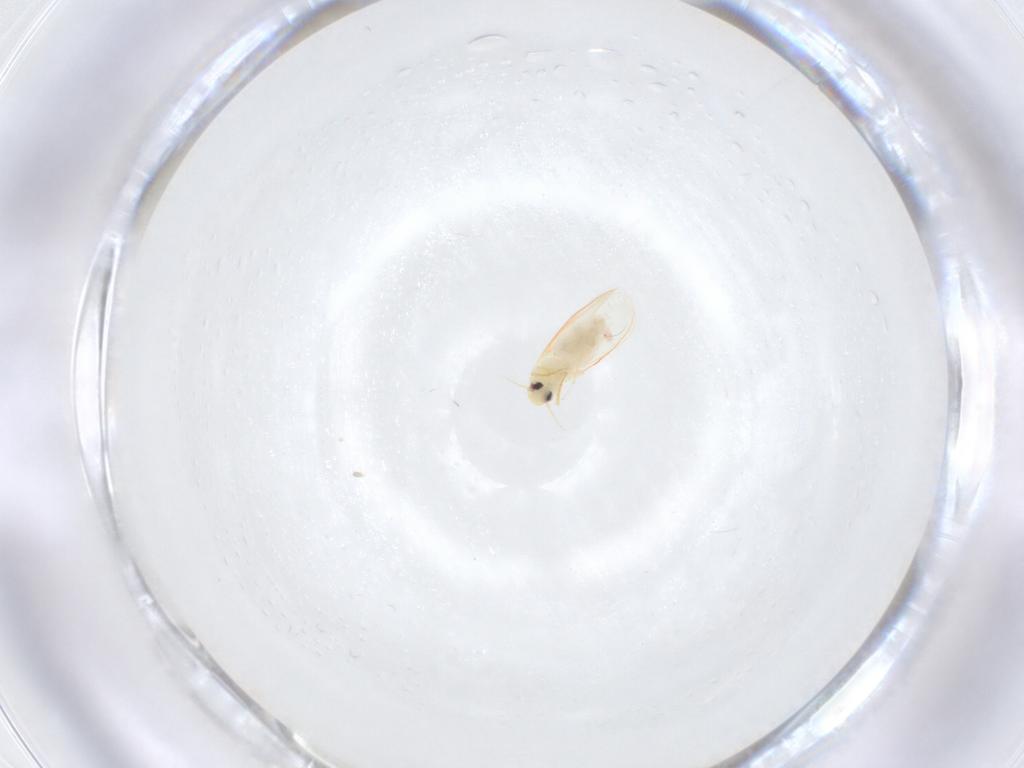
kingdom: Animalia
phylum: Arthropoda
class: Insecta
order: Hemiptera
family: Aleyrodidae
